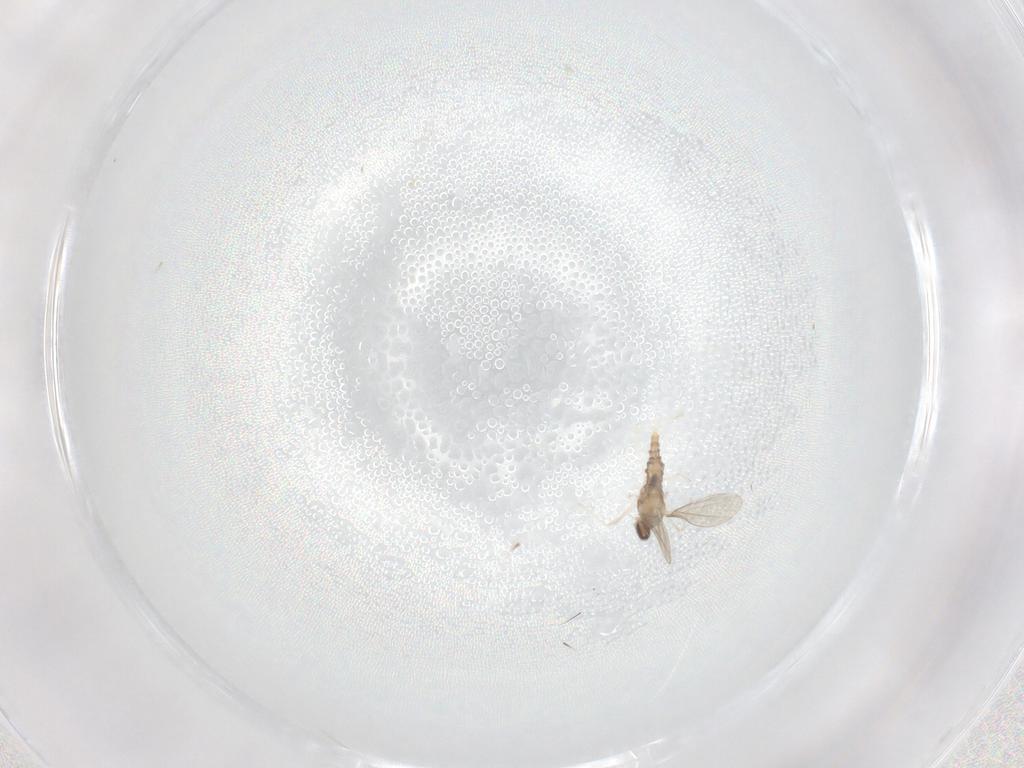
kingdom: Animalia
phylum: Arthropoda
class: Insecta
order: Diptera
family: Cecidomyiidae
